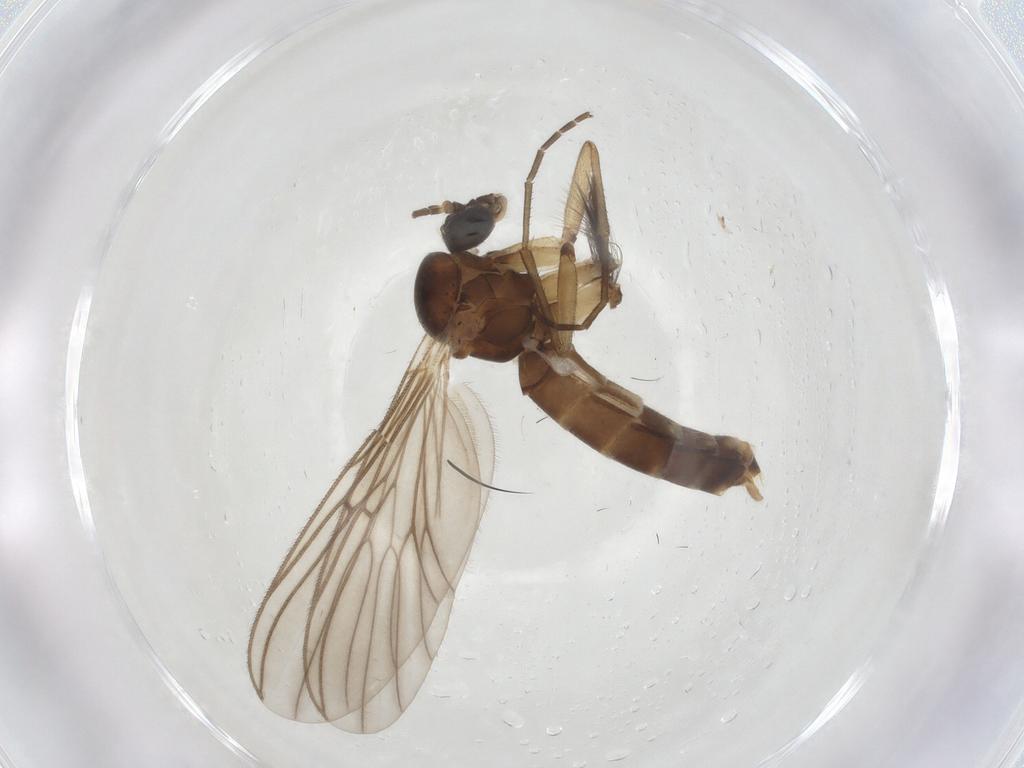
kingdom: Animalia
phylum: Arthropoda
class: Insecta
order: Diptera
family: Mycetophilidae
